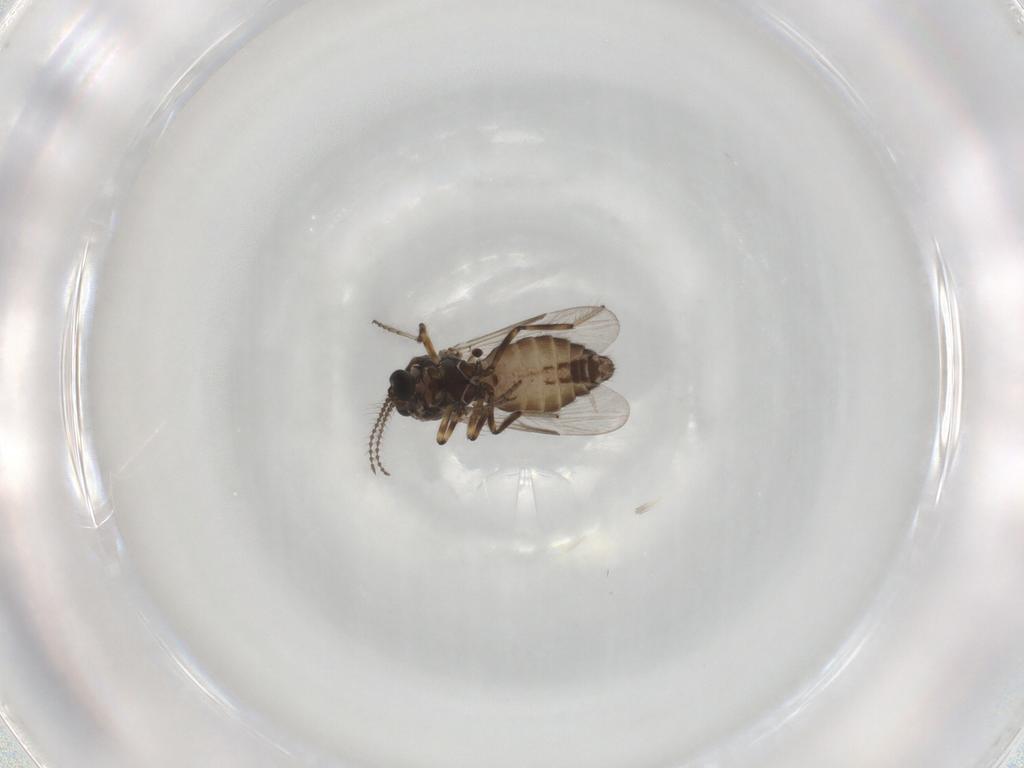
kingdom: Animalia
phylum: Arthropoda
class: Insecta
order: Diptera
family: Ceratopogonidae
